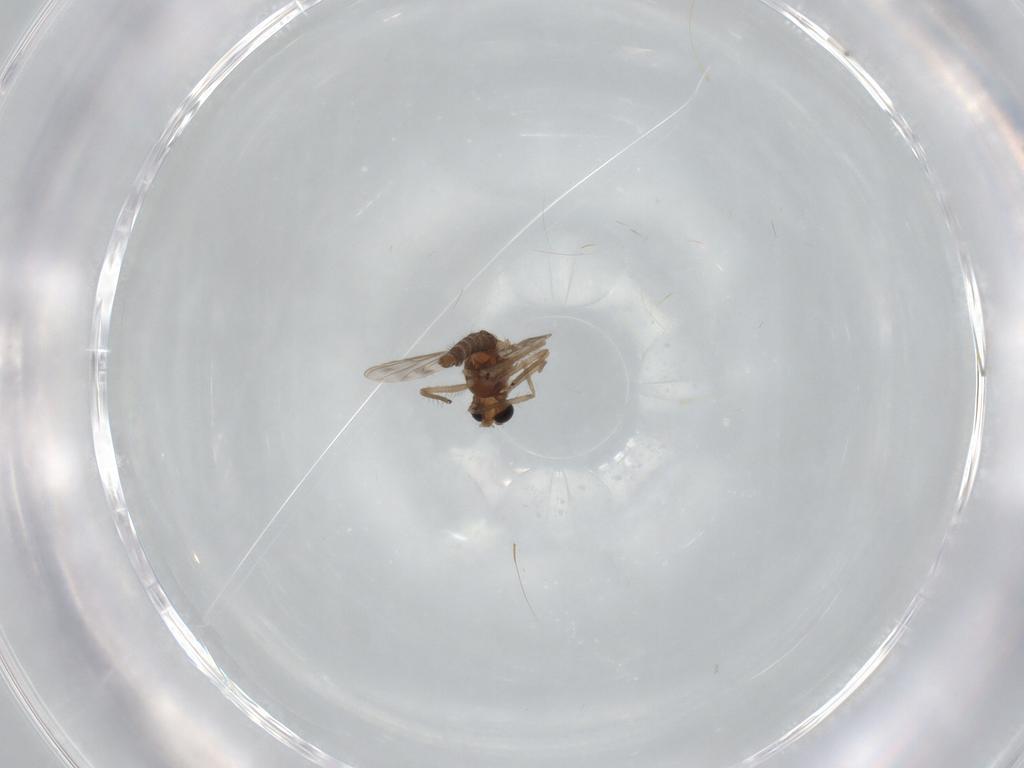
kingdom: Animalia
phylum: Arthropoda
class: Insecta
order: Diptera
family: Chironomidae
